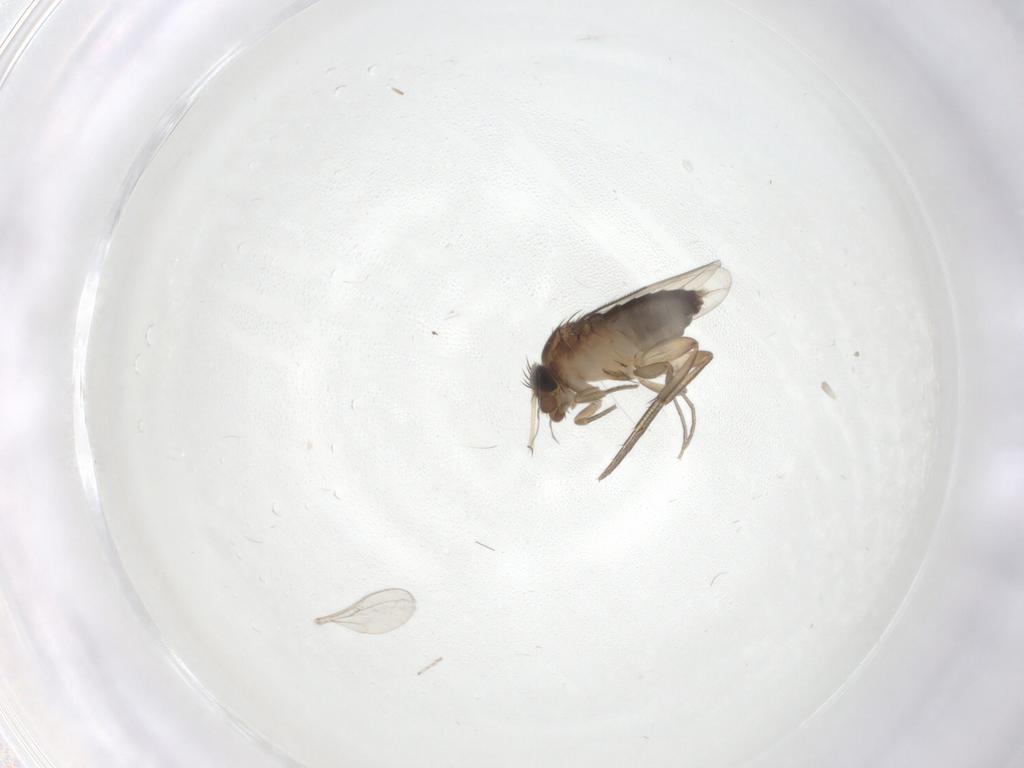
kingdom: Animalia
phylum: Arthropoda
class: Insecta
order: Diptera
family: Phoridae
